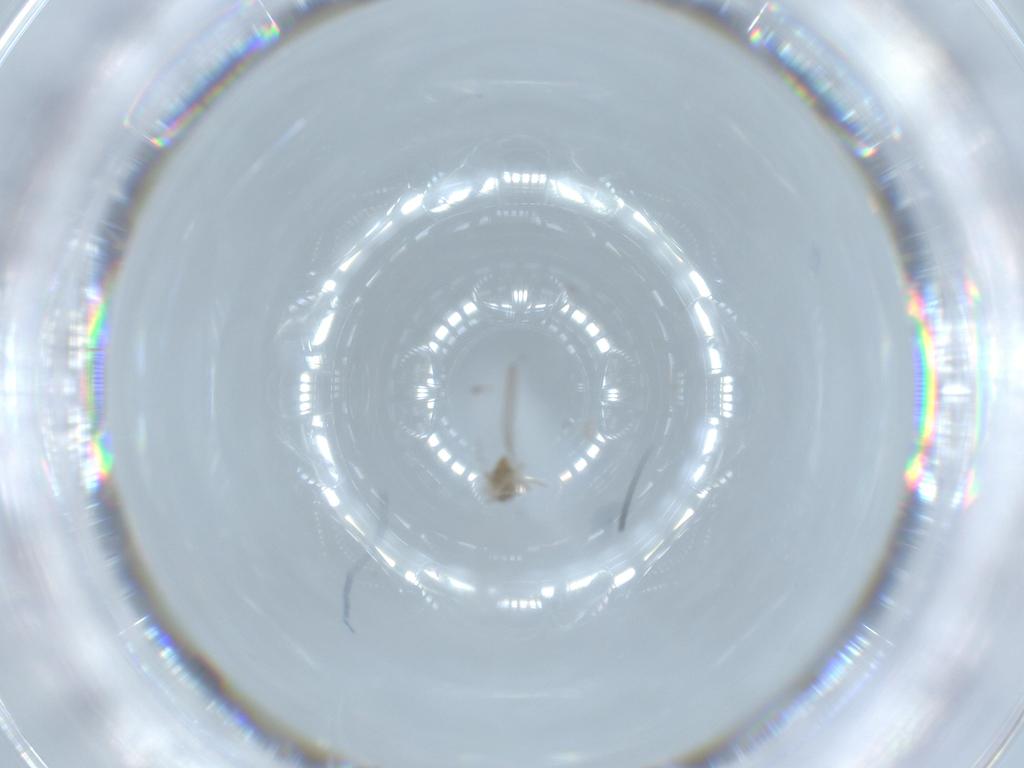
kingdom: Animalia
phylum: Arthropoda
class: Insecta
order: Diptera
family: Cecidomyiidae
